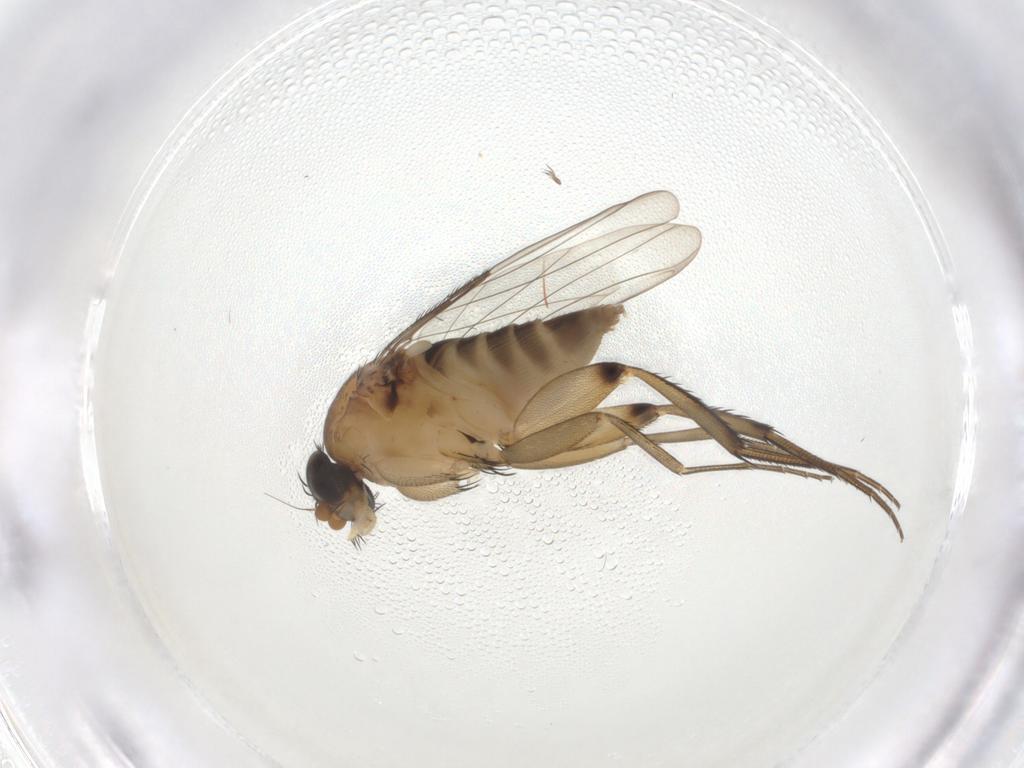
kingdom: Animalia
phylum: Arthropoda
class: Insecta
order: Diptera
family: Phoridae
